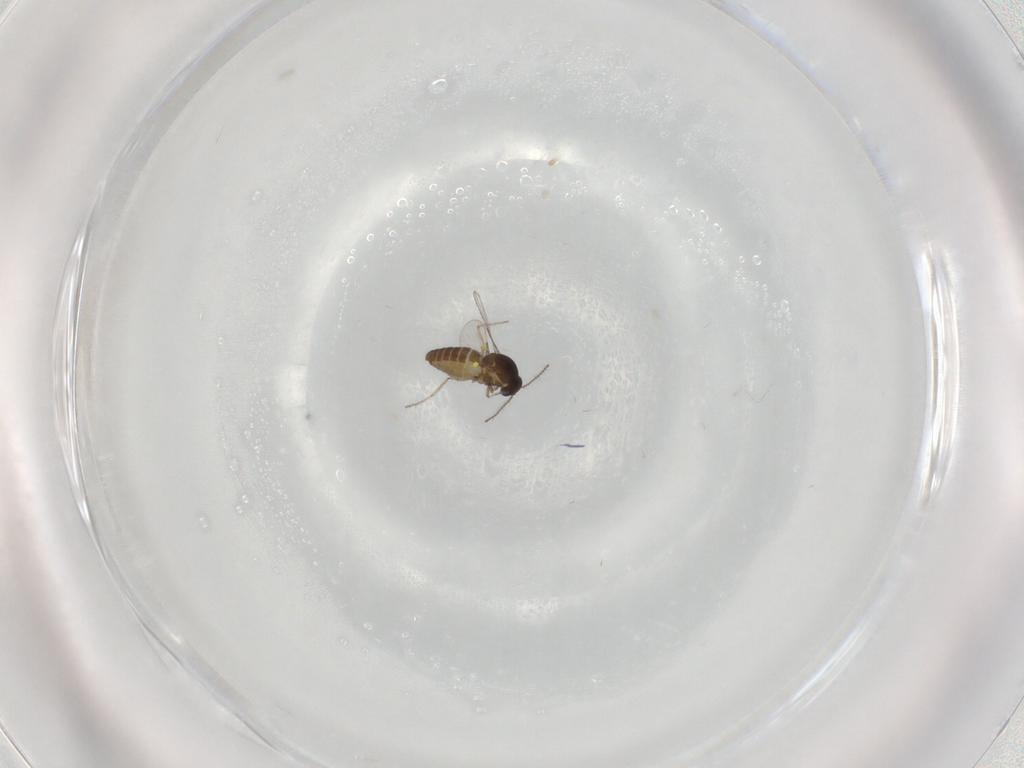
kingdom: Animalia
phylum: Arthropoda
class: Insecta
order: Diptera
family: Ceratopogonidae
